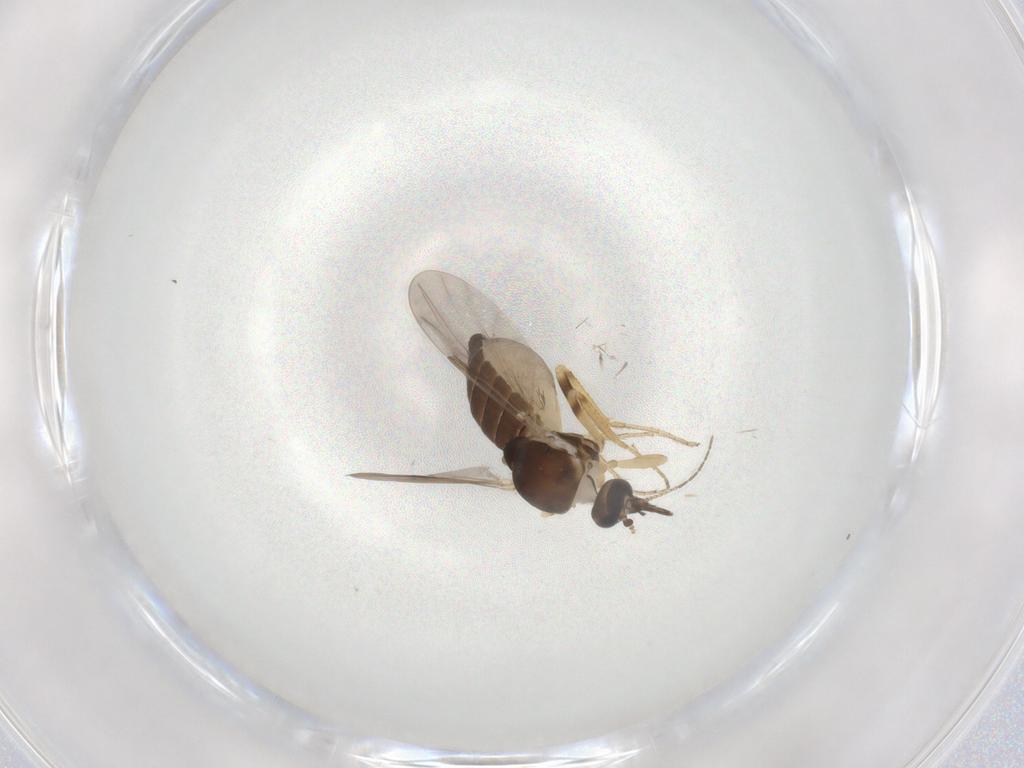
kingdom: Animalia
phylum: Arthropoda
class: Insecta
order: Diptera
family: Ceratopogonidae
